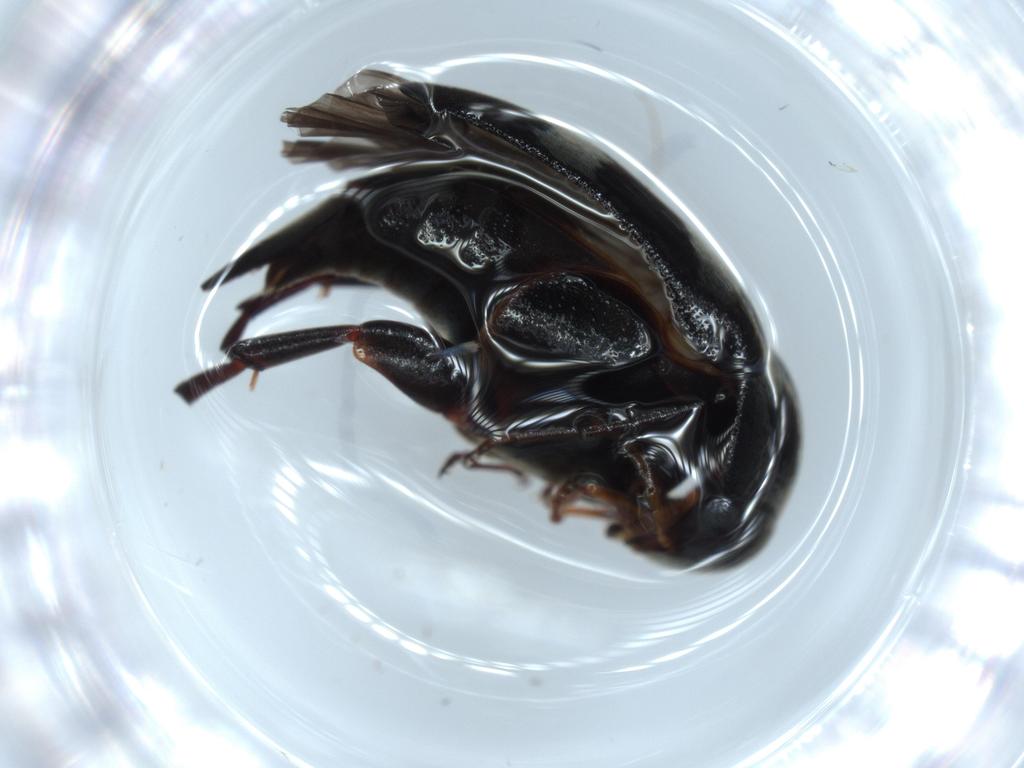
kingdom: Animalia
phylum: Arthropoda
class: Insecta
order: Coleoptera
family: Mordellidae
